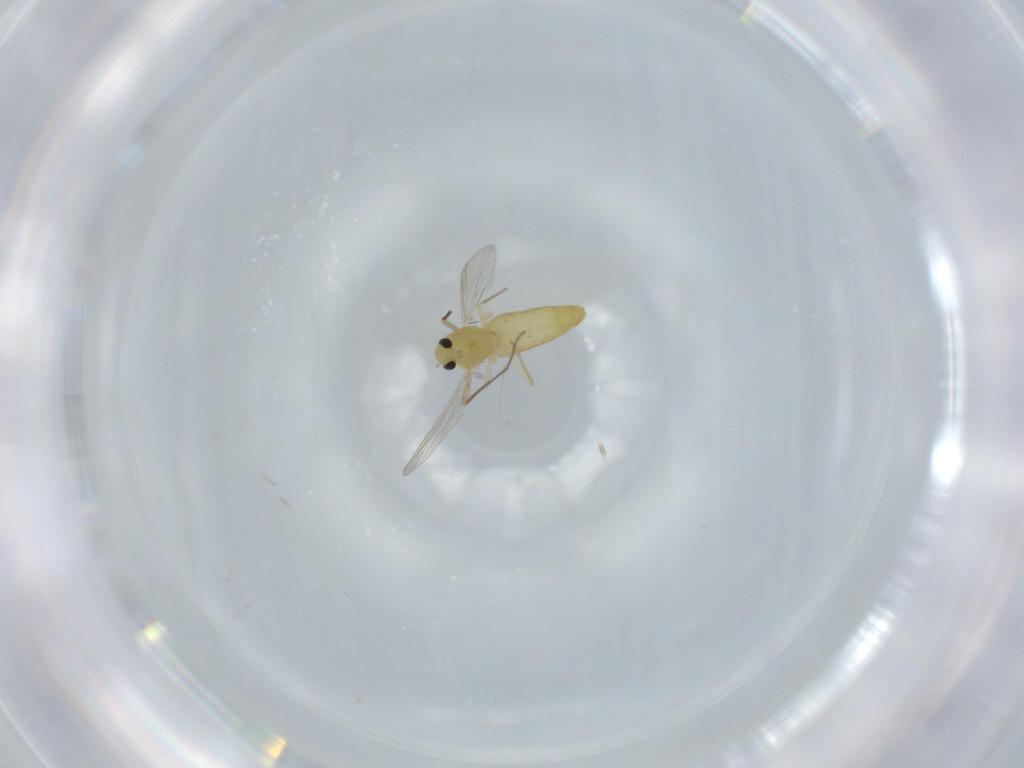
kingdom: Animalia
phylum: Arthropoda
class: Insecta
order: Diptera
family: Chironomidae
